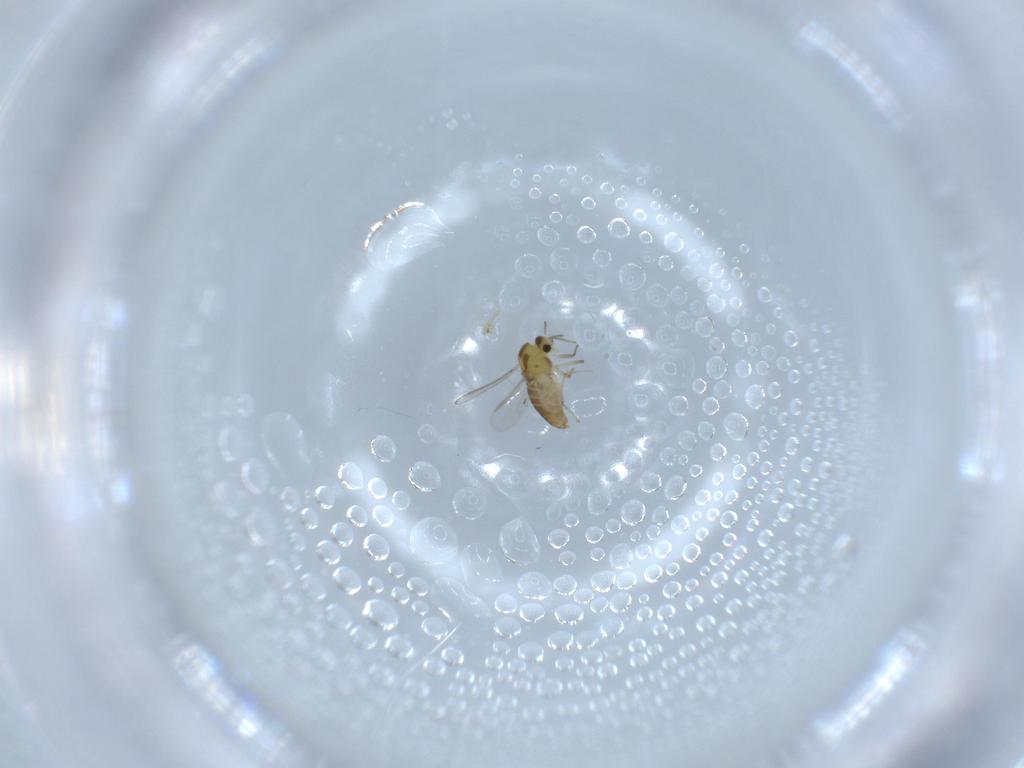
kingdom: Animalia
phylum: Arthropoda
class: Insecta
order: Diptera
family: Chironomidae
